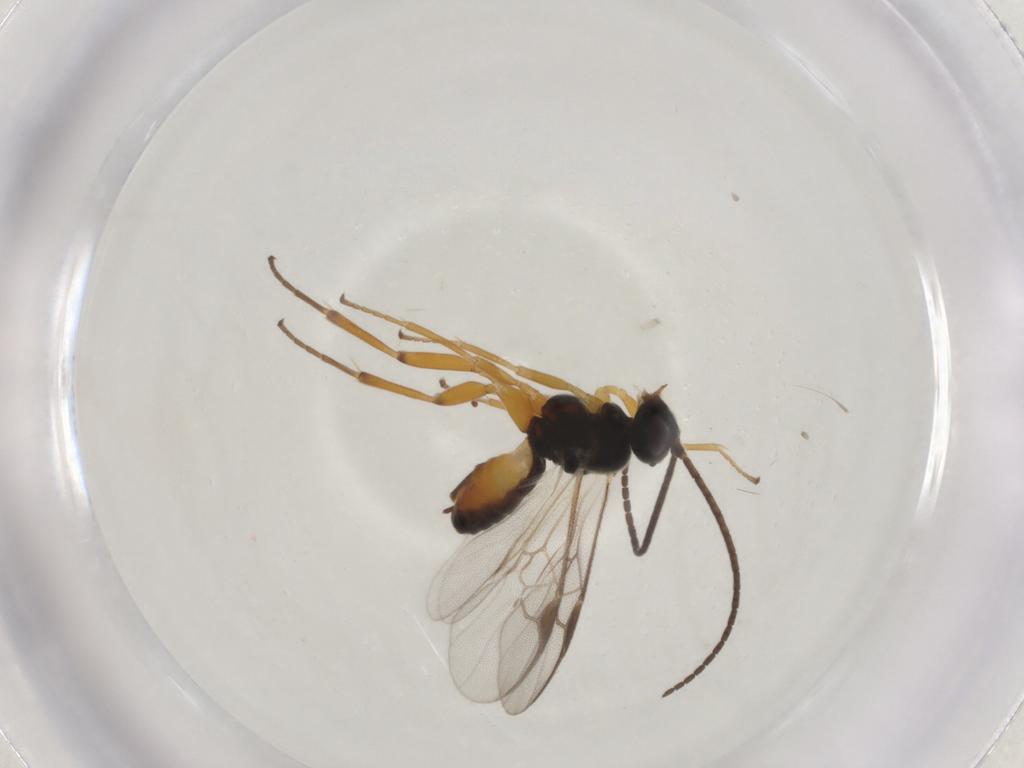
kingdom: Animalia
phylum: Arthropoda
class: Insecta
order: Hymenoptera
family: Braconidae
